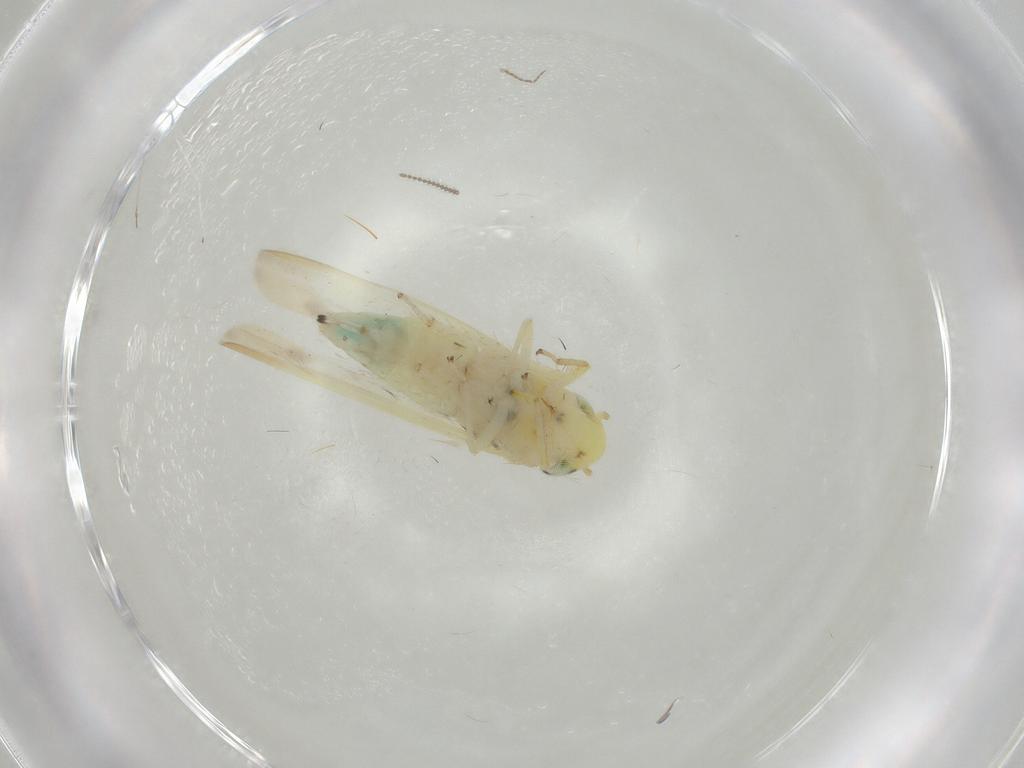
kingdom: Animalia
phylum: Arthropoda
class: Insecta
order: Hemiptera
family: Cicadellidae
